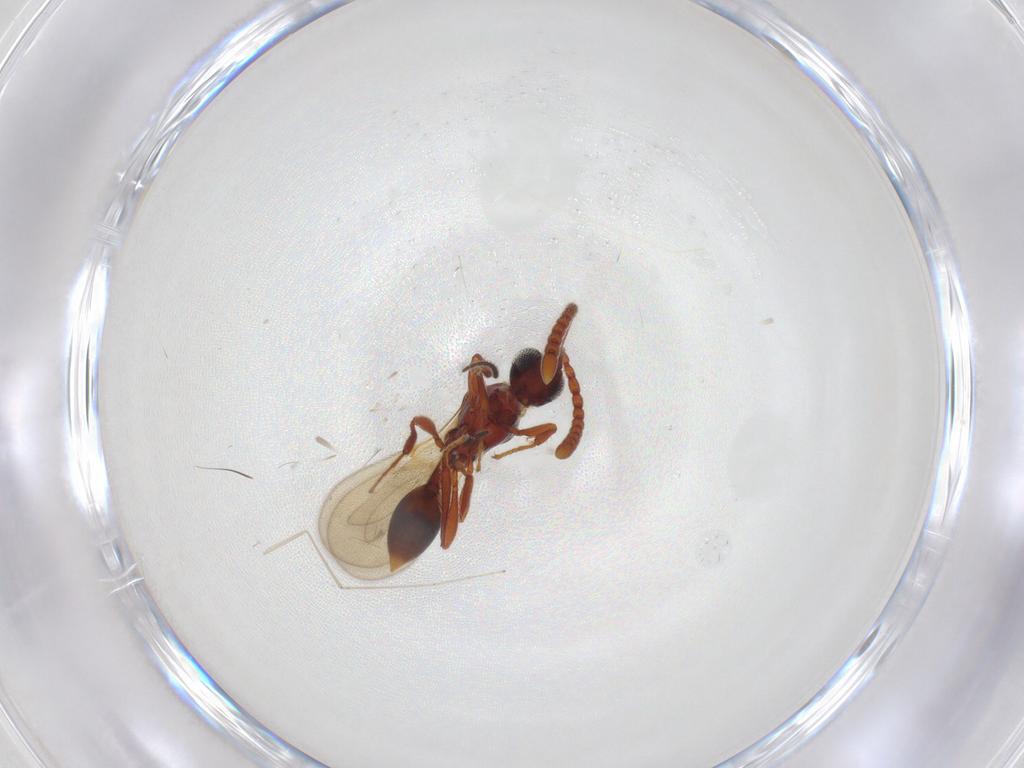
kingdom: Animalia
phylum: Arthropoda
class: Insecta
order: Hymenoptera
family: Diapriidae
